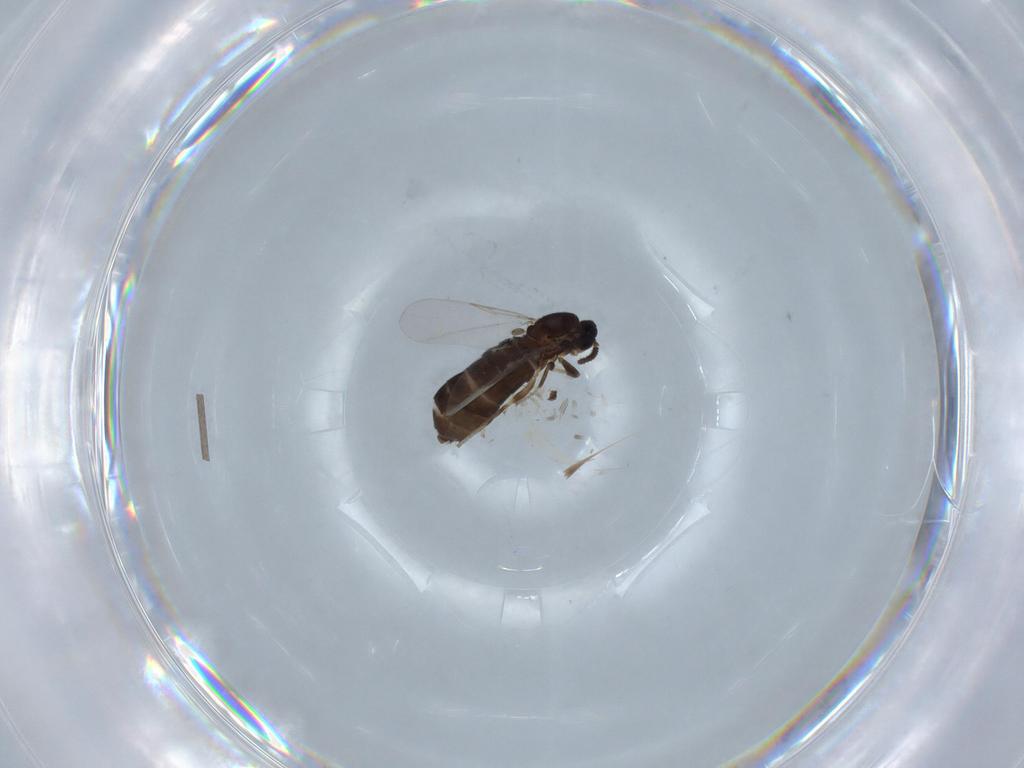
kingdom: Animalia
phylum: Arthropoda
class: Insecta
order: Diptera
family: Scatopsidae
